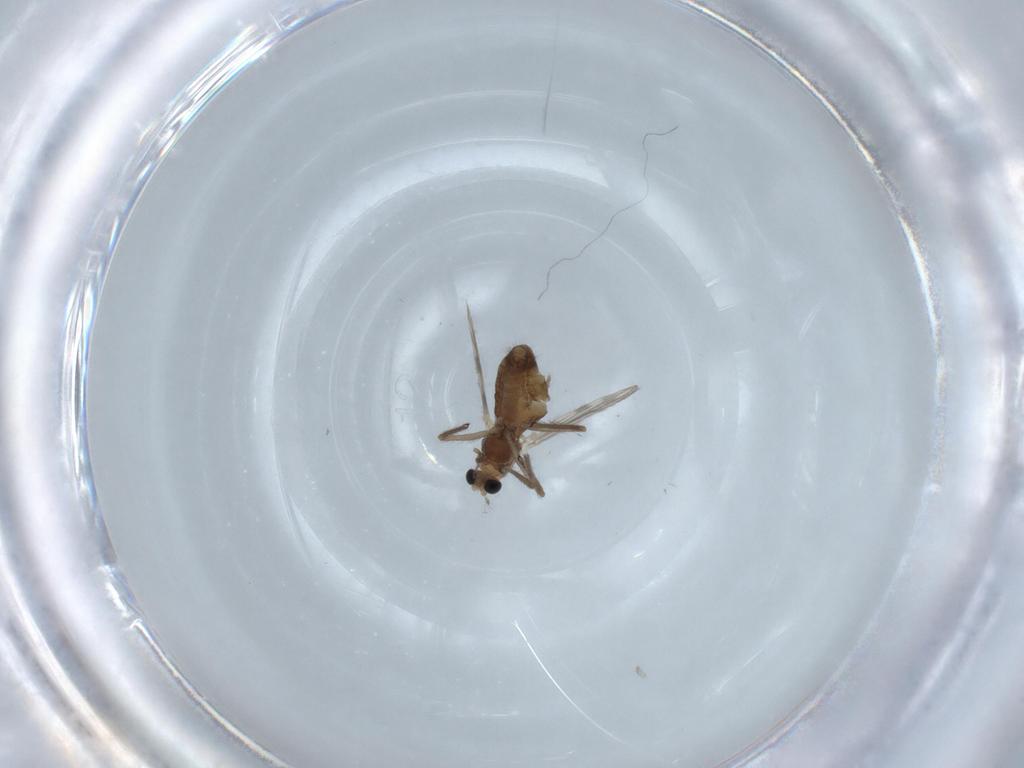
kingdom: Animalia
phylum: Arthropoda
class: Insecta
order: Diptera
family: Chironomidae
